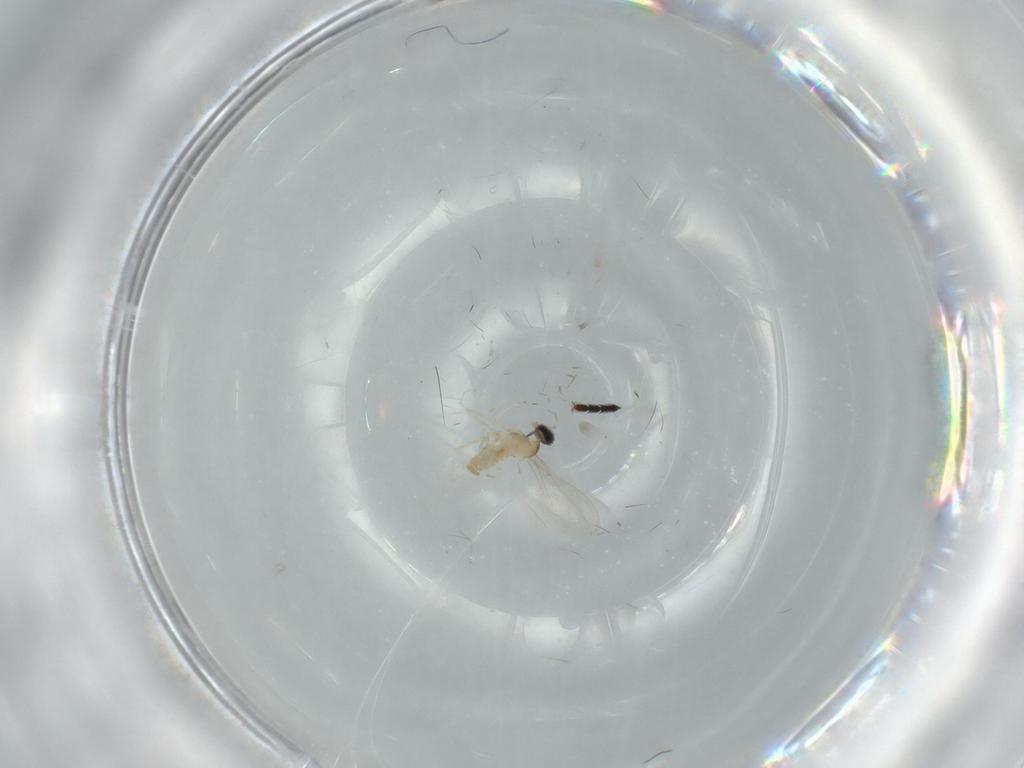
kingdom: Animalia
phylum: Arthropoda
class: Insecta
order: Diptera
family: Cecidomyiidae
